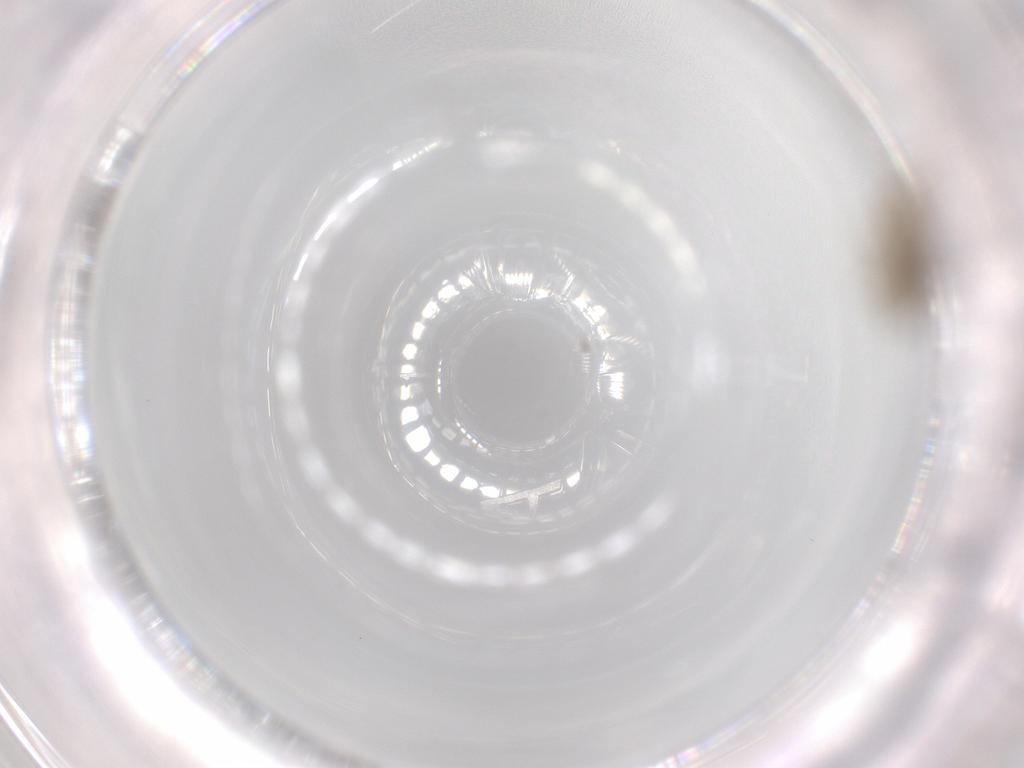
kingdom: Animalia
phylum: Arthropoda
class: Insecta
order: Diptera
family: Chironomidae
